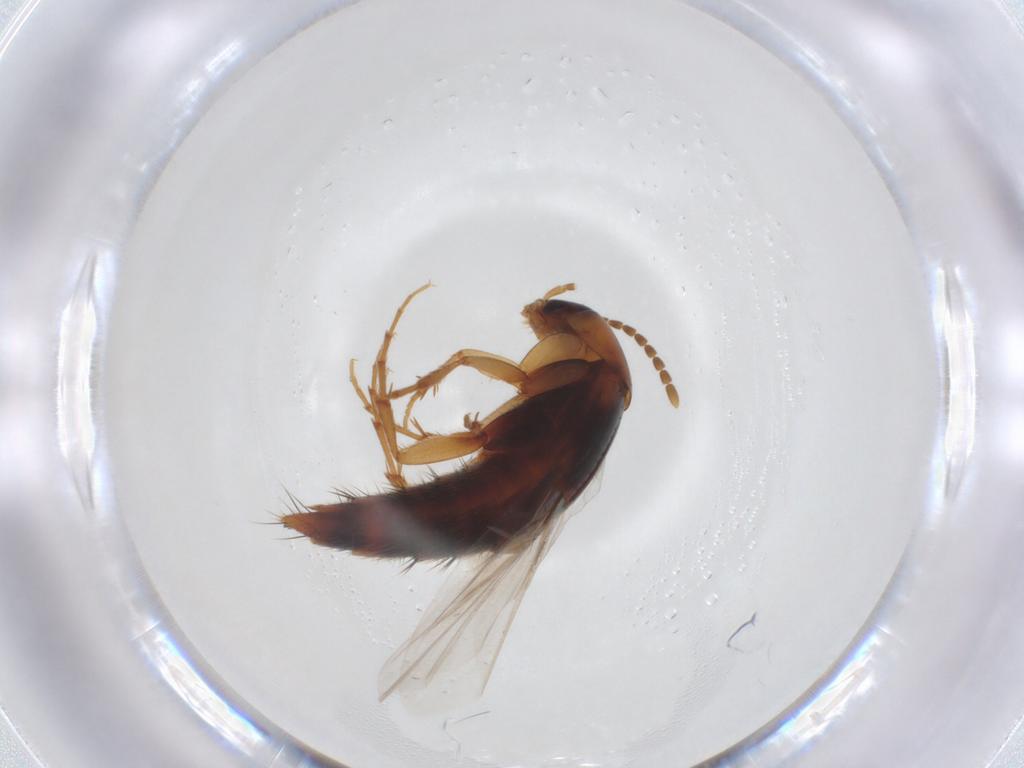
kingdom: Animalia
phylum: Arthropoda
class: Insecta
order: Coleoptera
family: Staphylinidae
